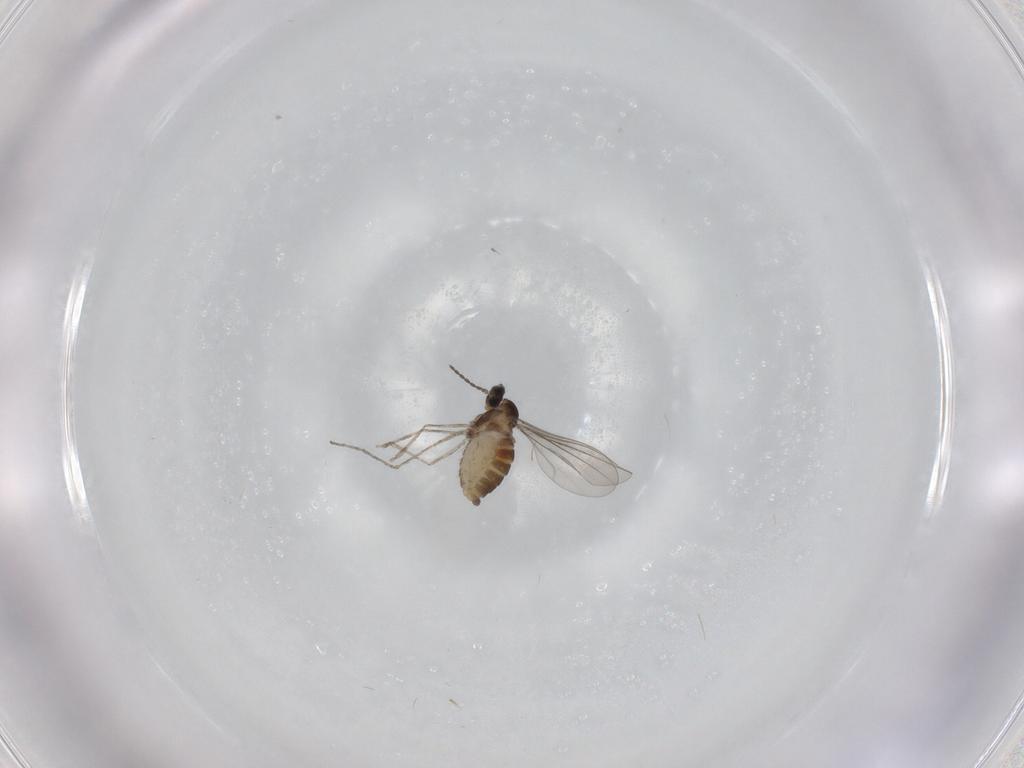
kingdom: Animalia
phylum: Arthropoda
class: Insecta
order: Diptera
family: Cecidomyiidae
